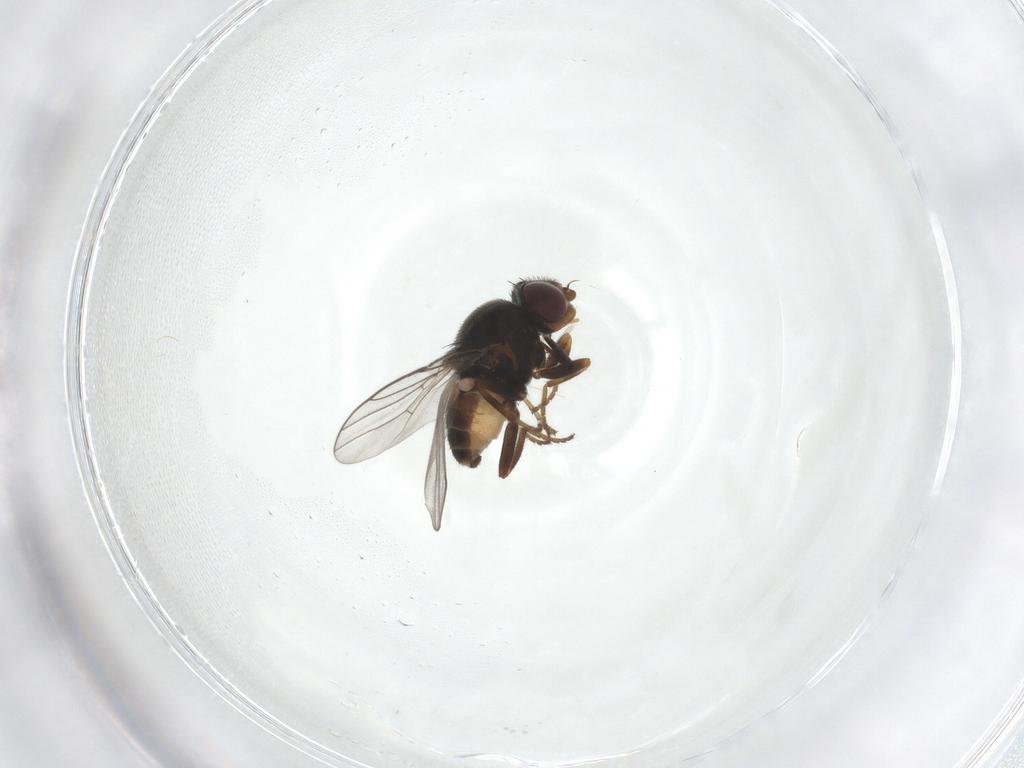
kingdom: Animalia
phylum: Arthropoda
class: Insecta
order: Diptera
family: Chloropidae
